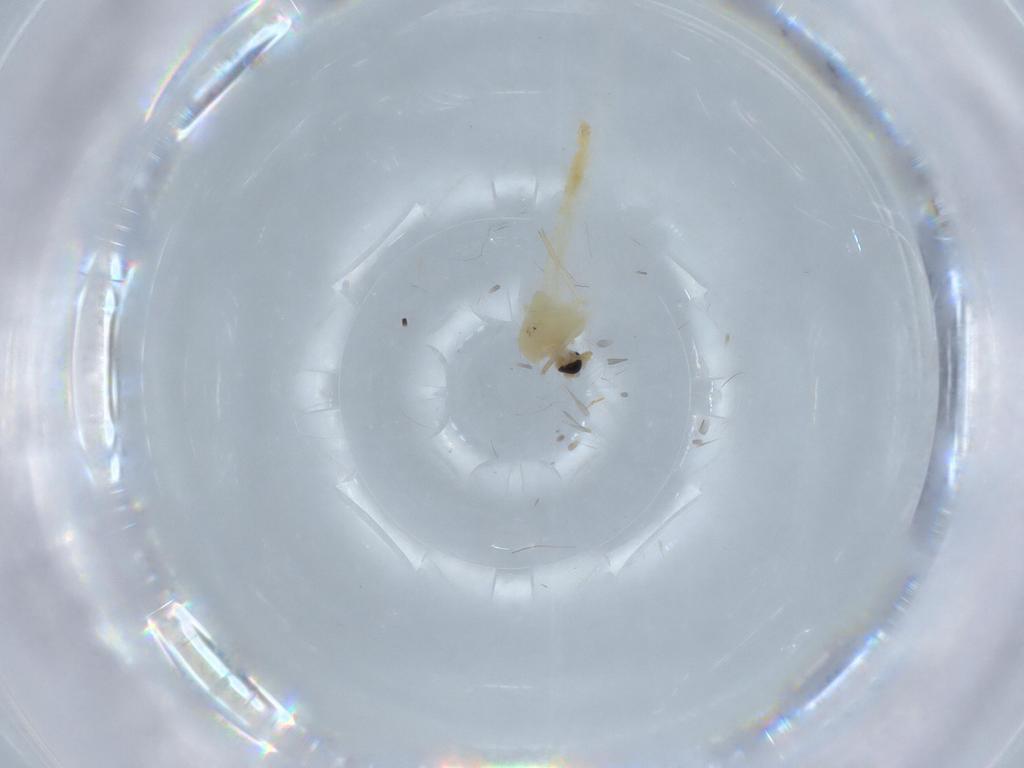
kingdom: Animalia
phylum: Arthropoda
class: Insecta
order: Diptera
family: Chironomidae
